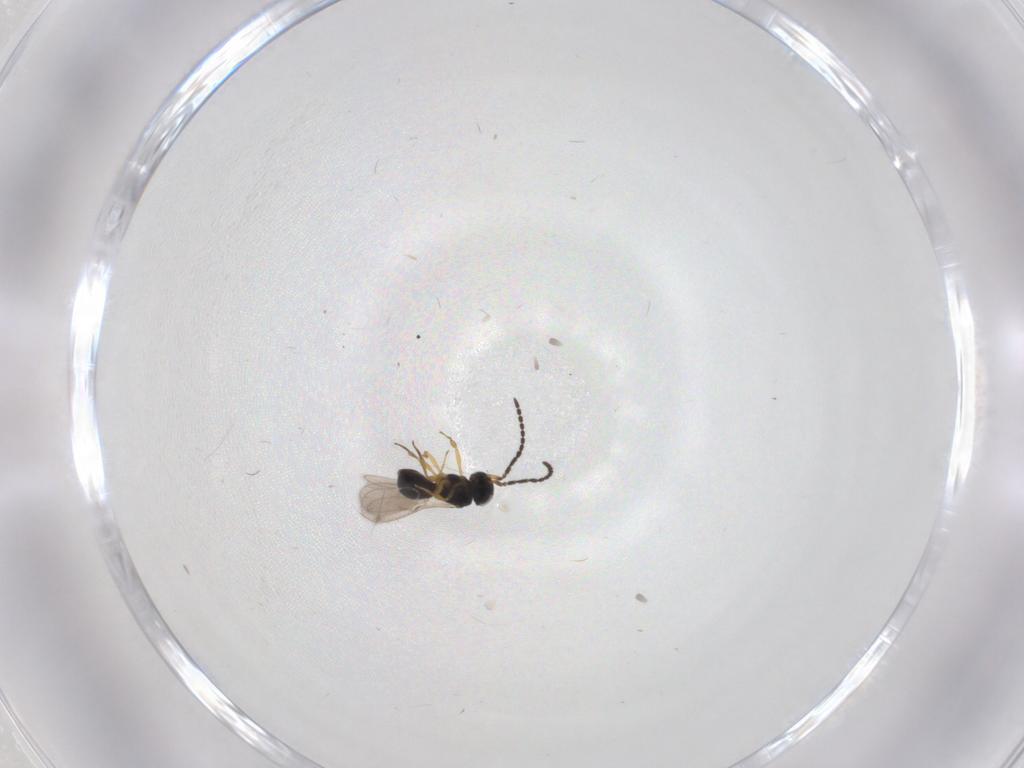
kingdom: Animalia
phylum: Arthropoda
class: Insecta
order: Hymenoptera
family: Scelionidae
